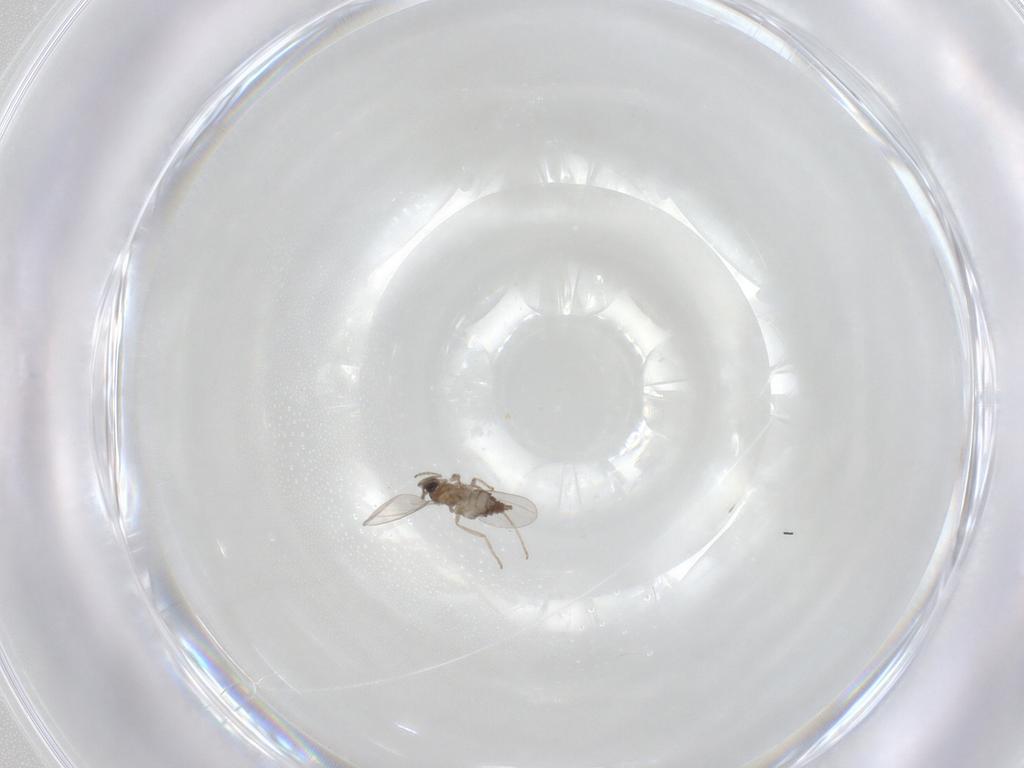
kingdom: Animalia
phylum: Arthropoda
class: Insecta
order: Diptera
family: Cecidomyiidae
